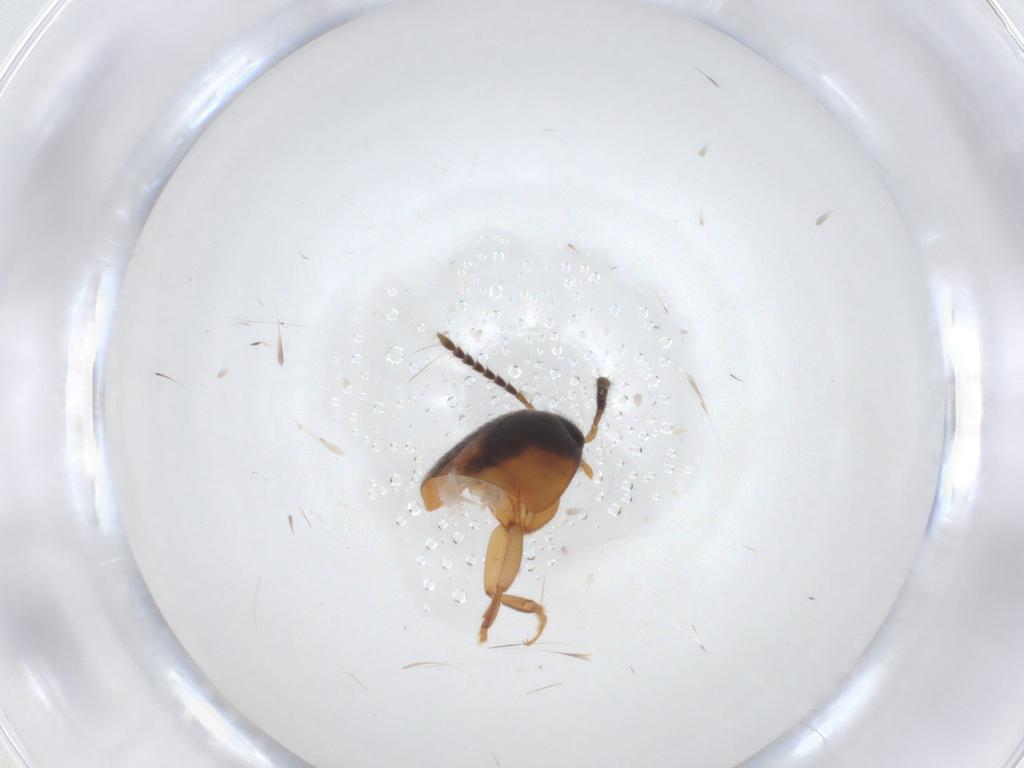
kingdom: Animalia
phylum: Arthropoda
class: Insecta
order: Coleoptera
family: Staphylinidae
